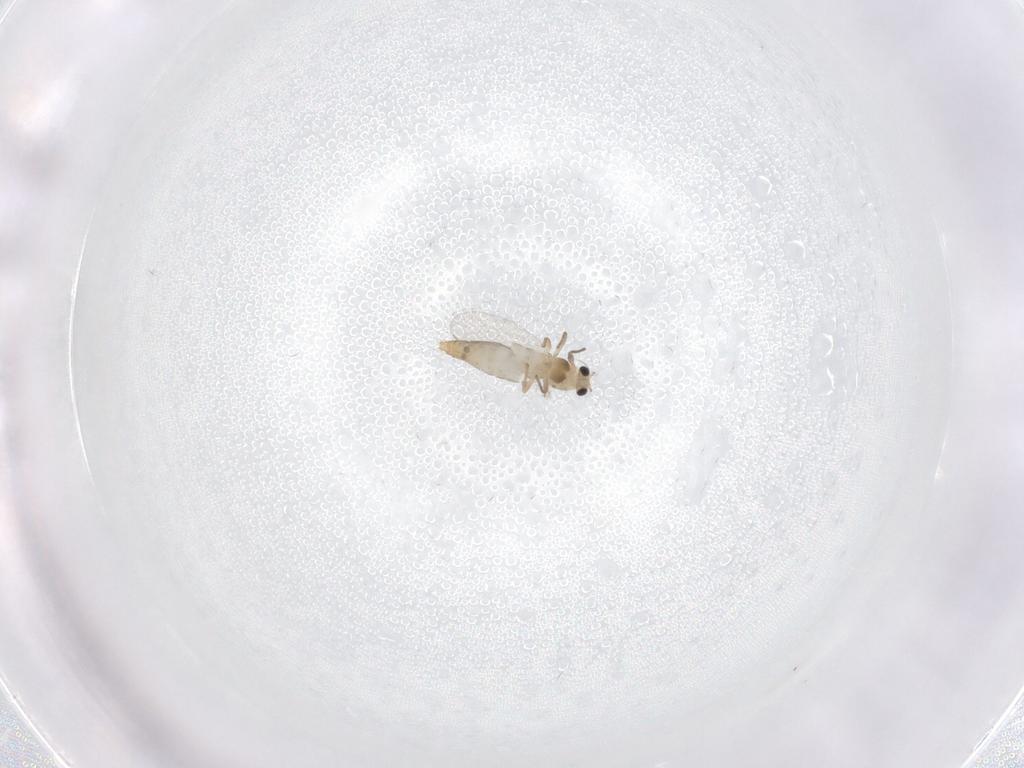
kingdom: Animalia
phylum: Arthropoda
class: Insecta
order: Diptera
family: Chironomidae
